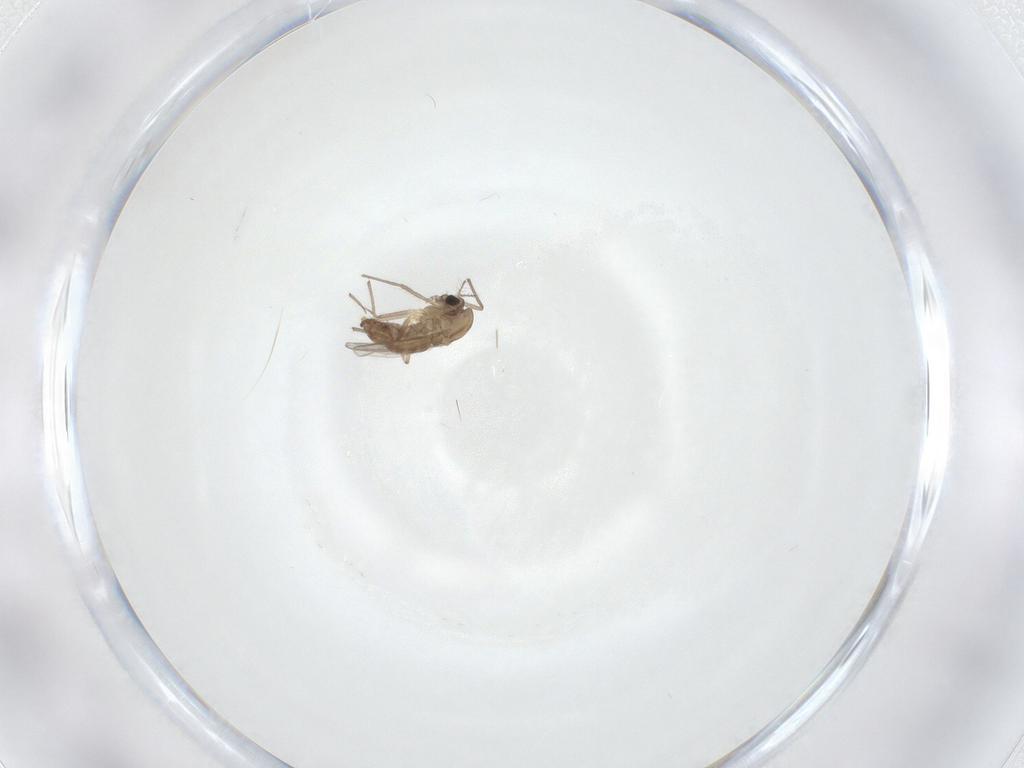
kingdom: Animalia
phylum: Arthropoda
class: Insecta
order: Diptera
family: Chironomidae
